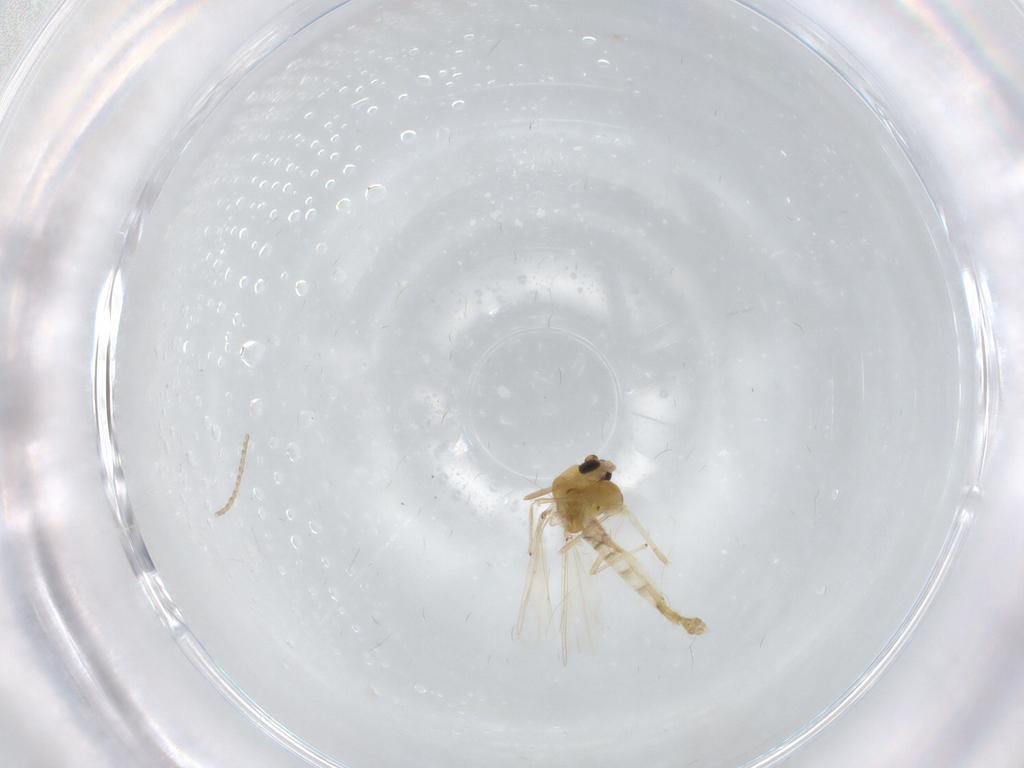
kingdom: Animalia
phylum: Arthropoda
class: Insecta
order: Diptera
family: Chironomidae
